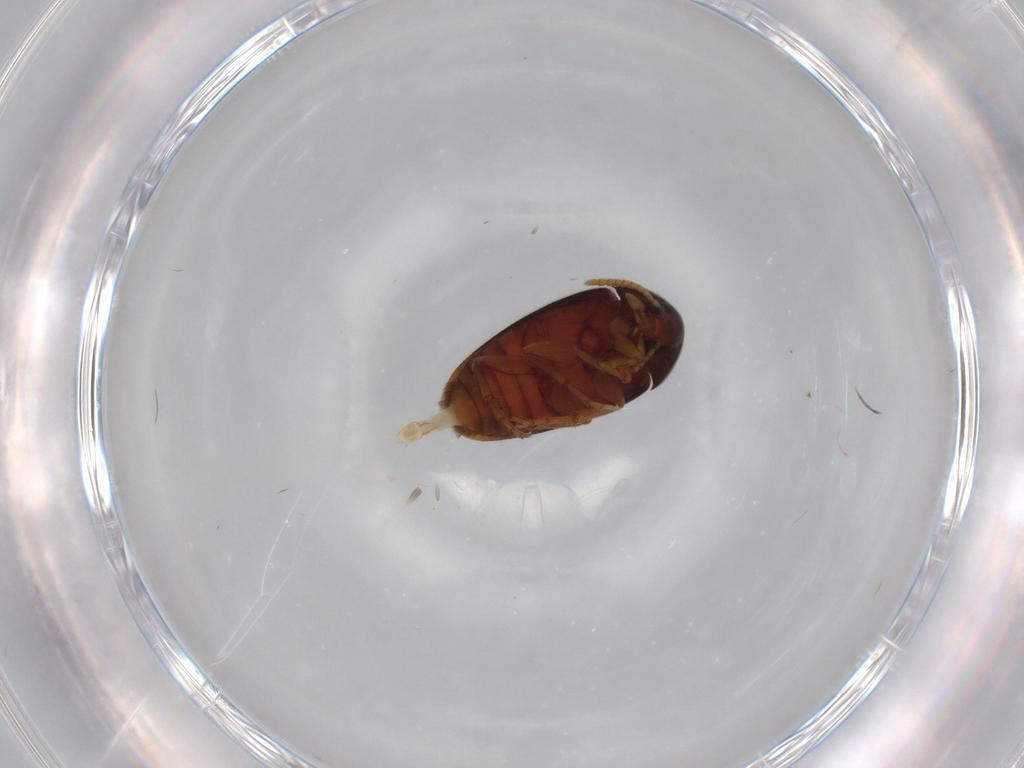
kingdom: Animalia
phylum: Arthropoda
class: Insecta
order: Coleoptera
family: Scraptiidae
